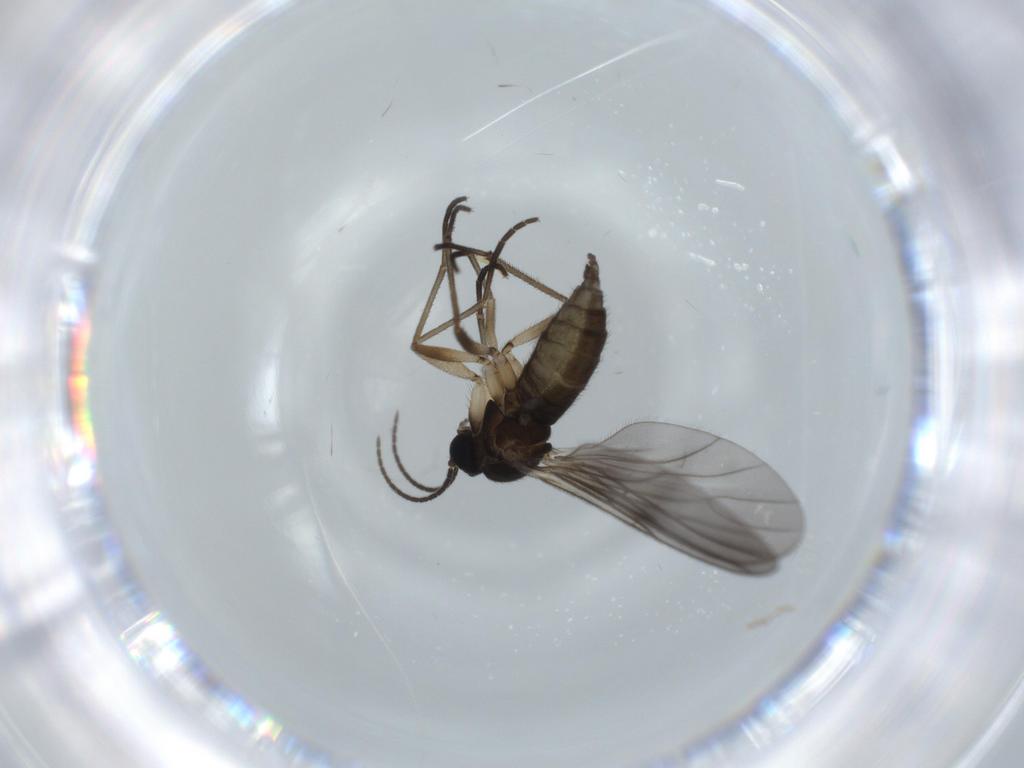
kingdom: Animalia
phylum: Arthropoda
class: Insecta
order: Diptera
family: Sciaridae
